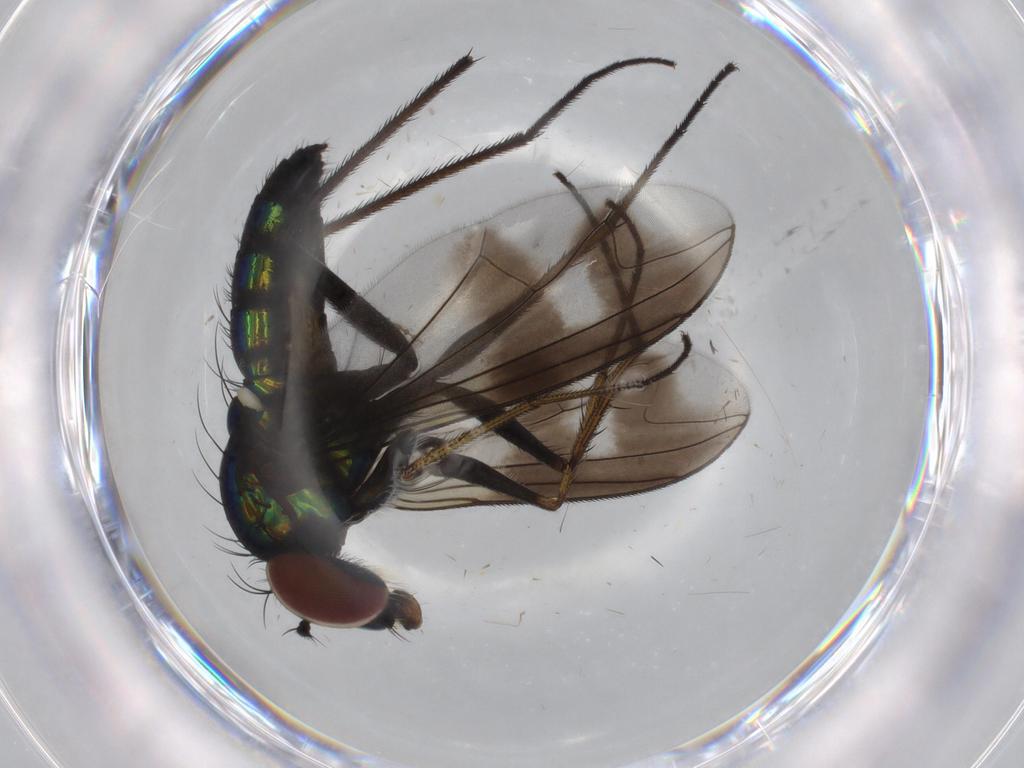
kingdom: Animalia
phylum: Arthropoda
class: Insecta
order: Diptera
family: Dolichopodidae
